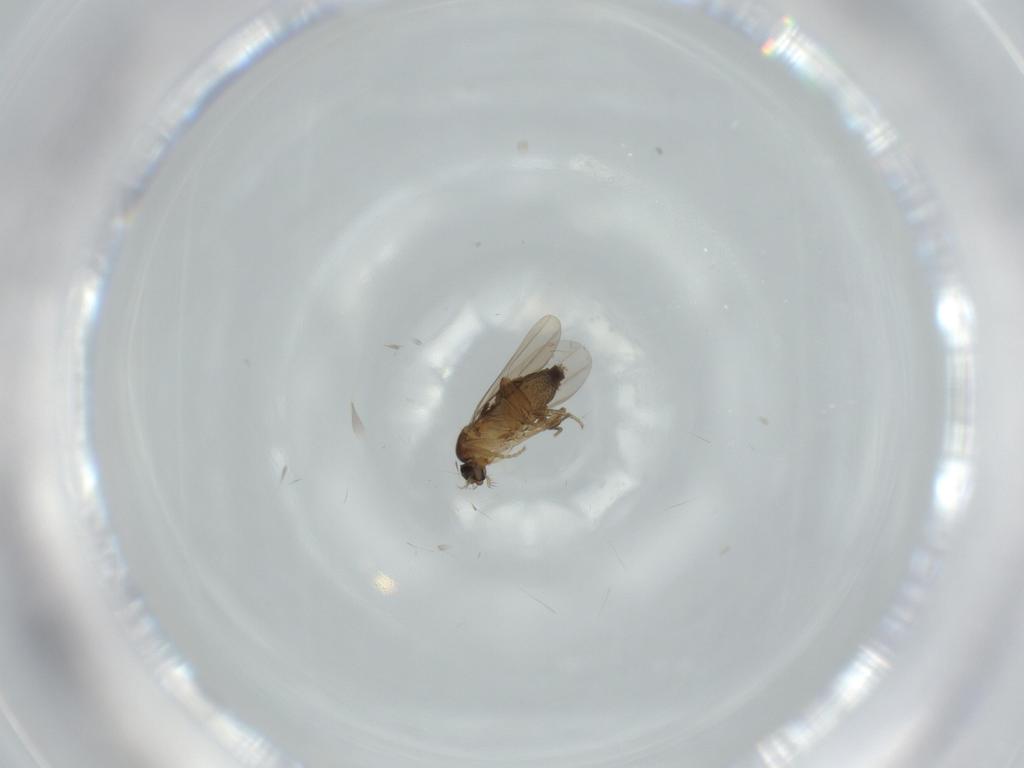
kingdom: Animalia
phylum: Arthropoda
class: Insecta
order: Diptera
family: Phoridae
